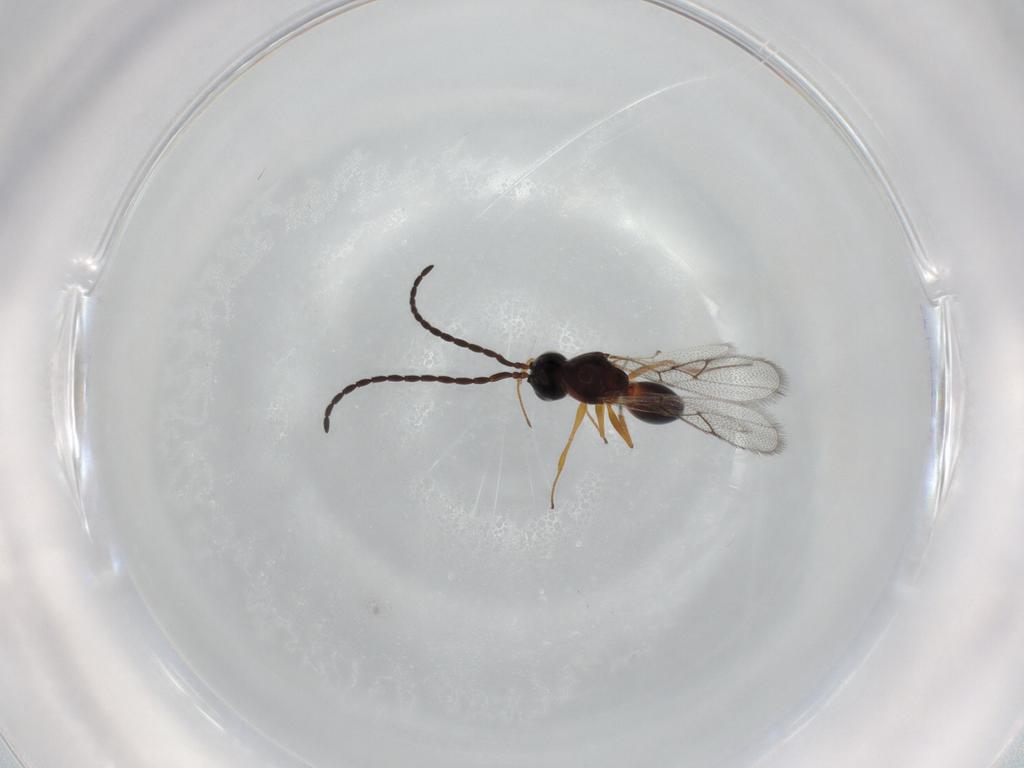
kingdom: Animalia
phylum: Arthropoda
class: Insecta
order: Hymenoptera
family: Figitidae
